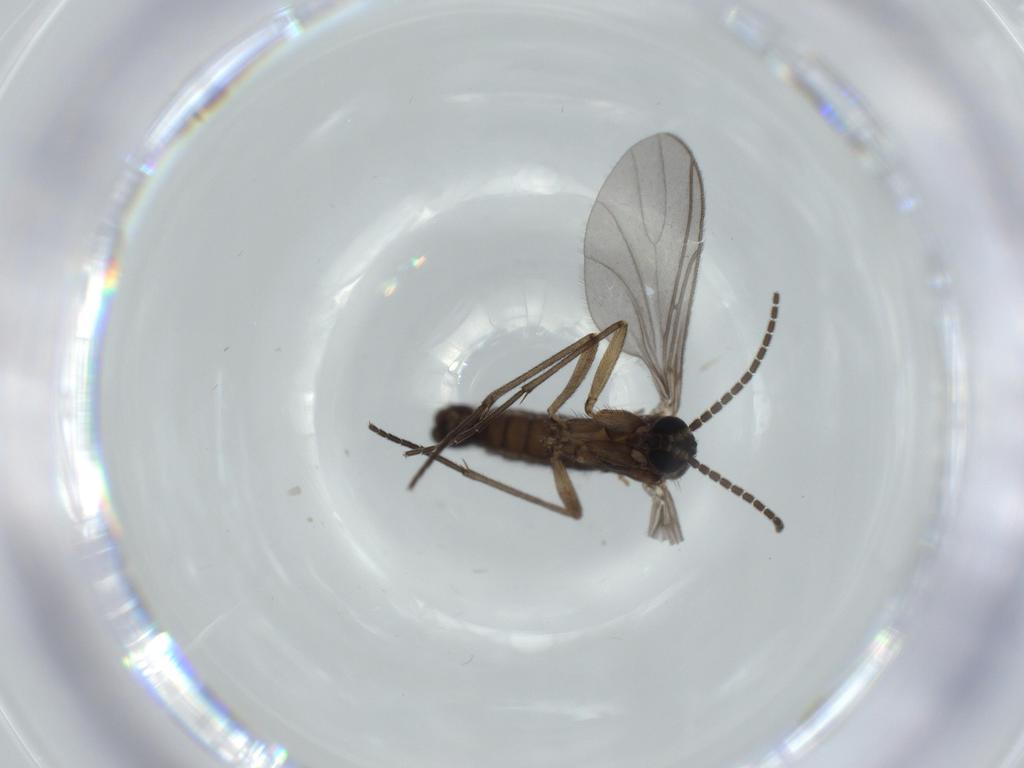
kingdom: Animalia
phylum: Arthropoda
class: Insecta
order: Diptera
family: Sciaridae
